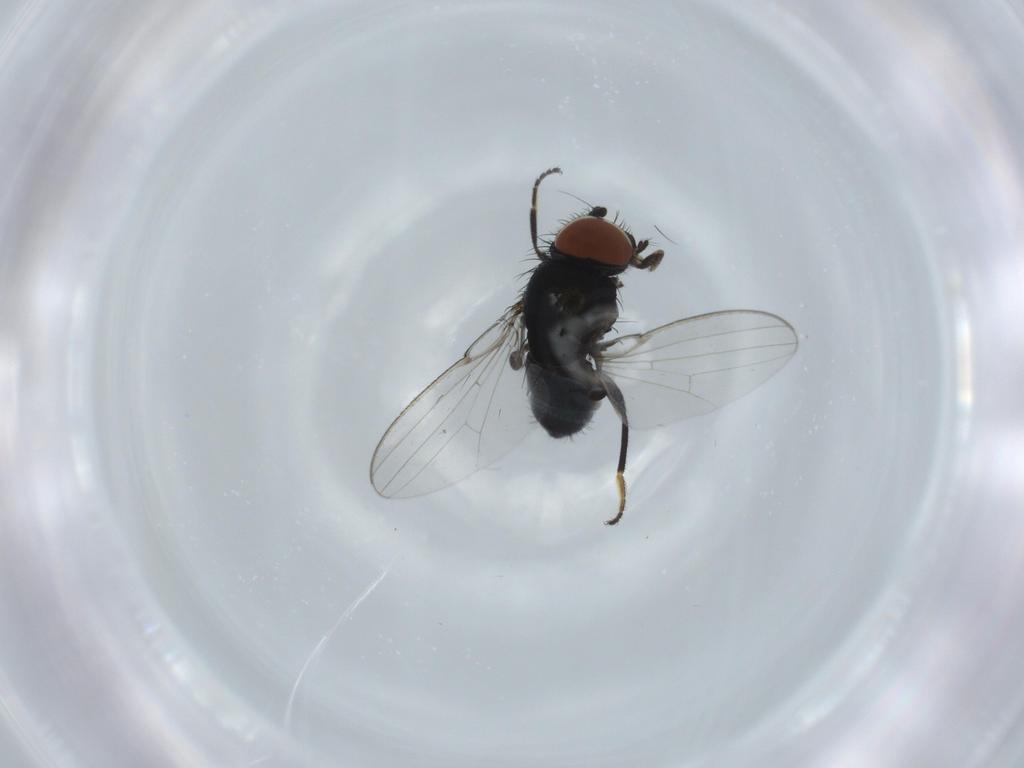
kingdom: Animalia
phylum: Arthropoda
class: Insecta
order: Diptera
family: Milichiidae
